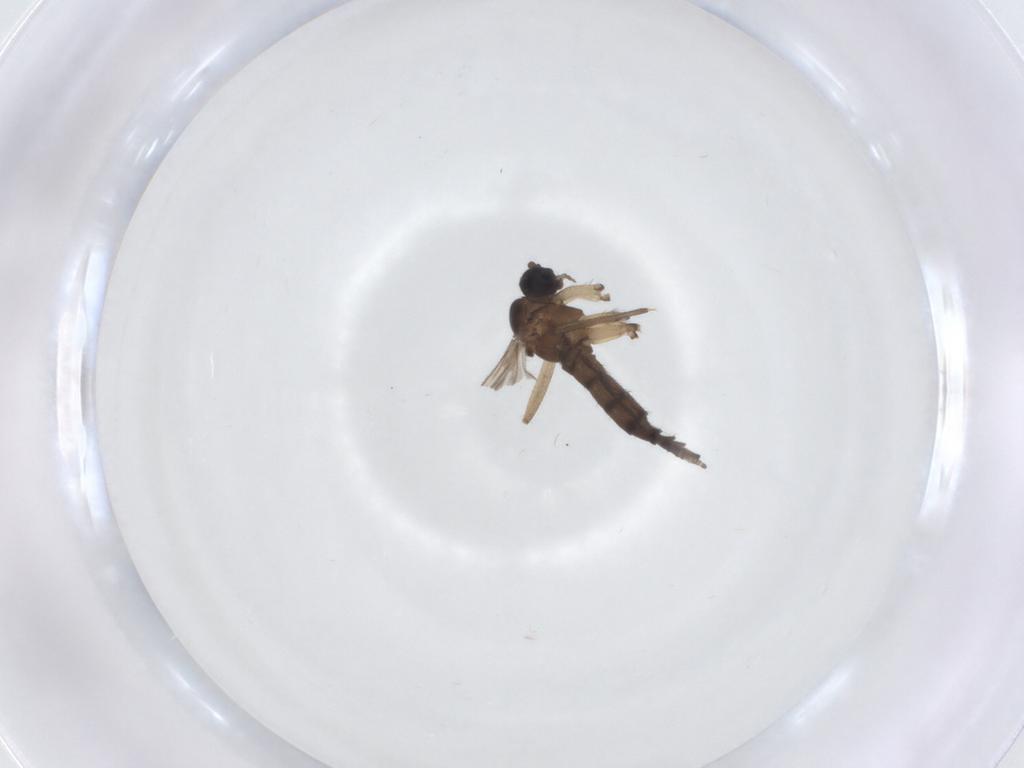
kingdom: Animalia
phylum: Arthropoda
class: Insecta
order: Diptera
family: Sciaridae
